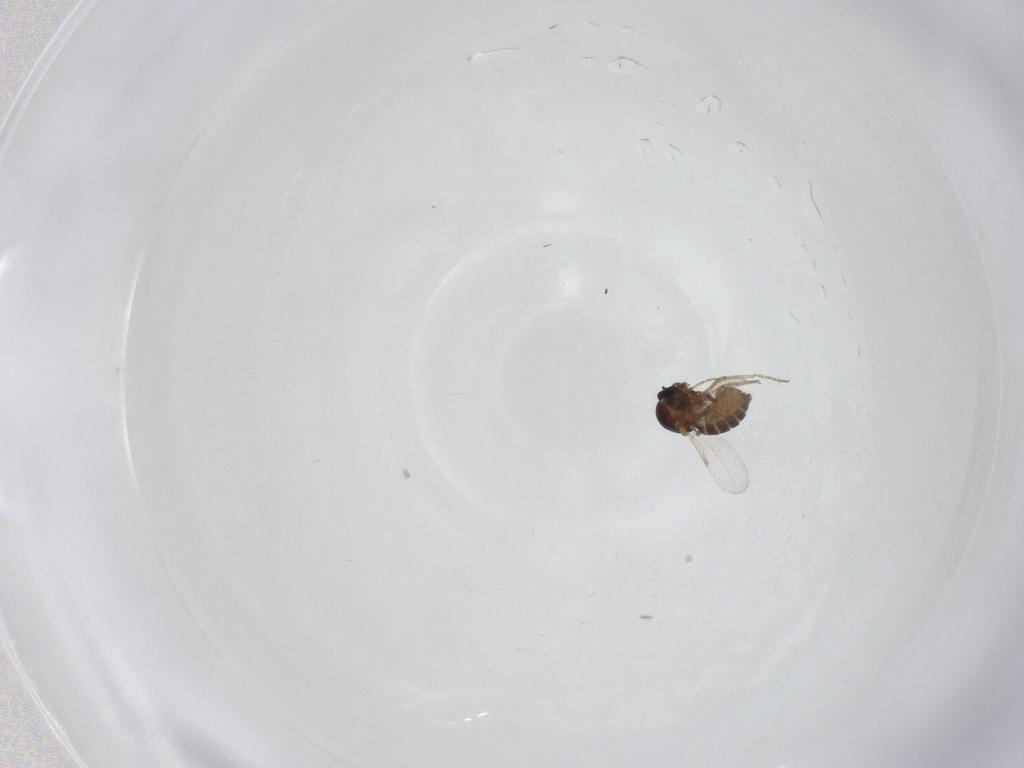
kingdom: Animalia
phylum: Arthropoda
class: Insecta
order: Diptera
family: Ceratopogonidae
